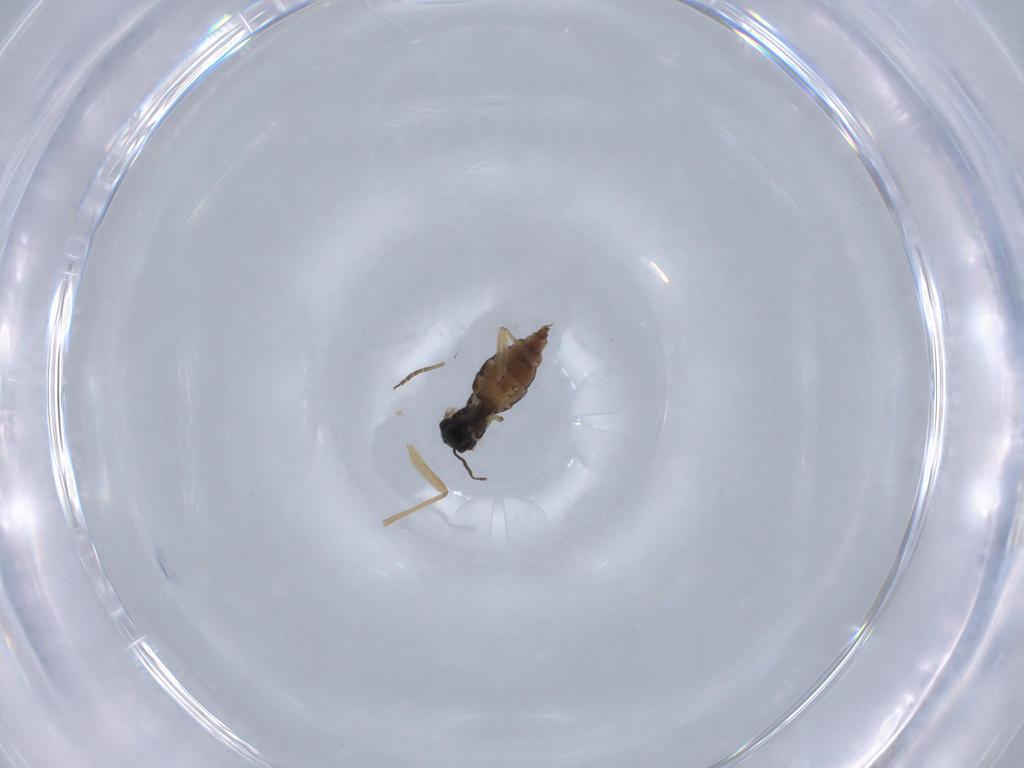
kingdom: Animalia
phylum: Arthropoda
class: Insecta
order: Diptera
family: Sciaridae
